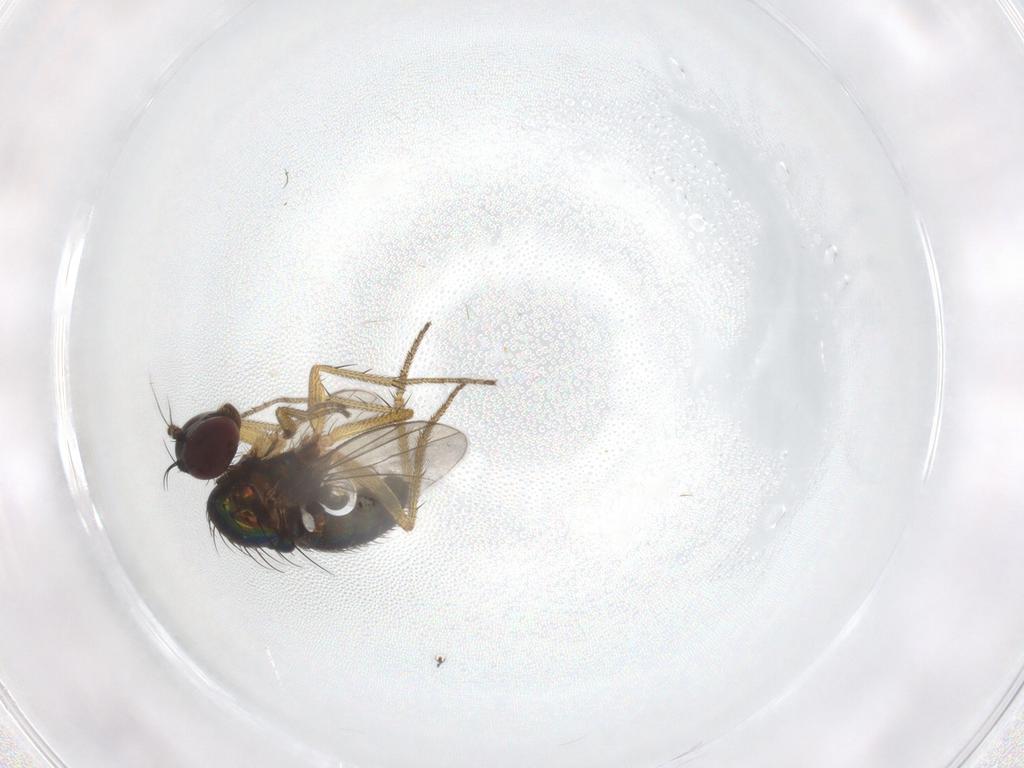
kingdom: Animalia
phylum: Arthropoda
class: Insecta
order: Diptera
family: Dolichopodidae
